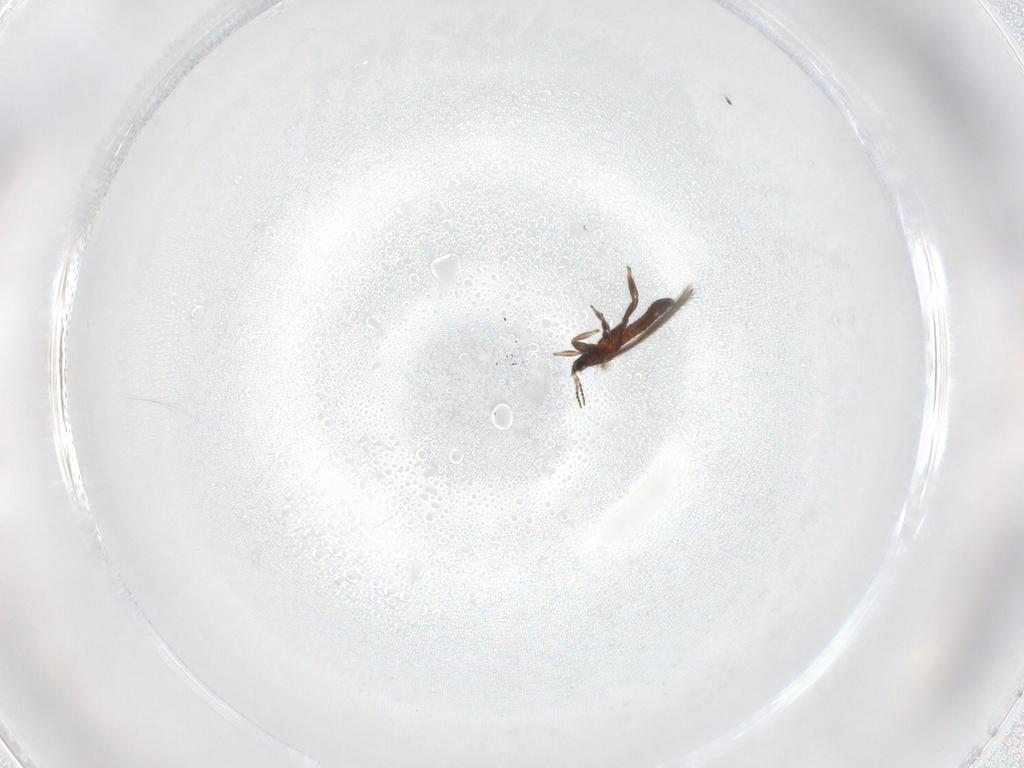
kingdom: Animalia
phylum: Arthropoda
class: Insecta
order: Thysanoptera
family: Melanthripidae
